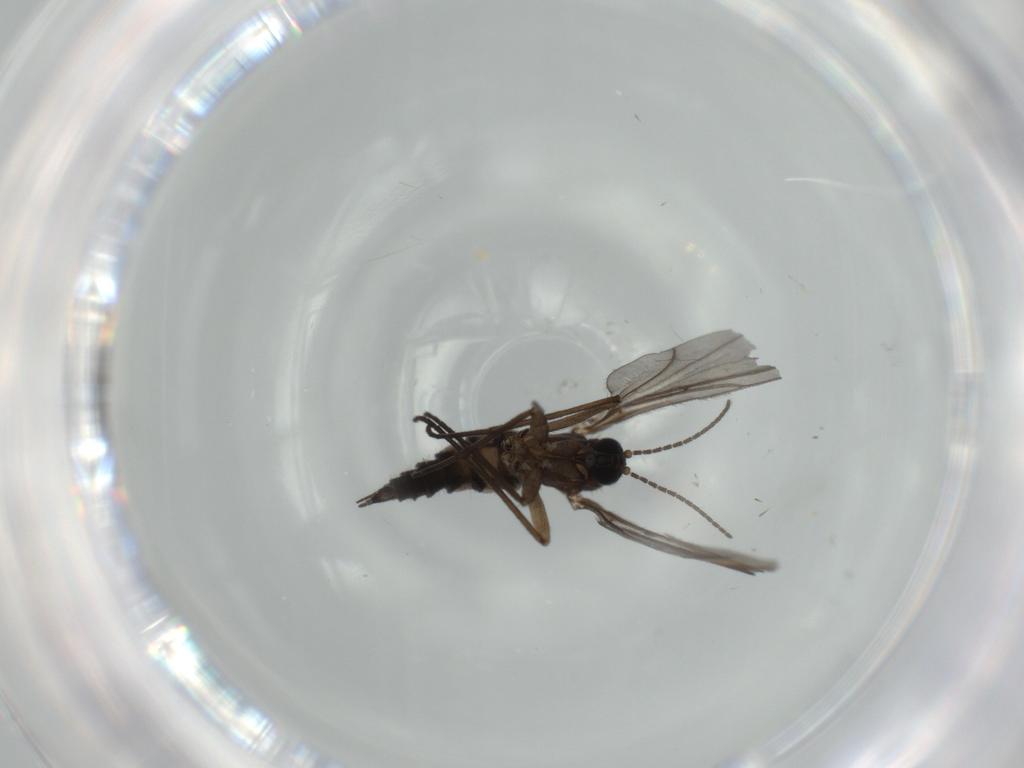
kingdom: Animalia
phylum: Arthropoda
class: Insecta
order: Diptera
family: Sciaridae
